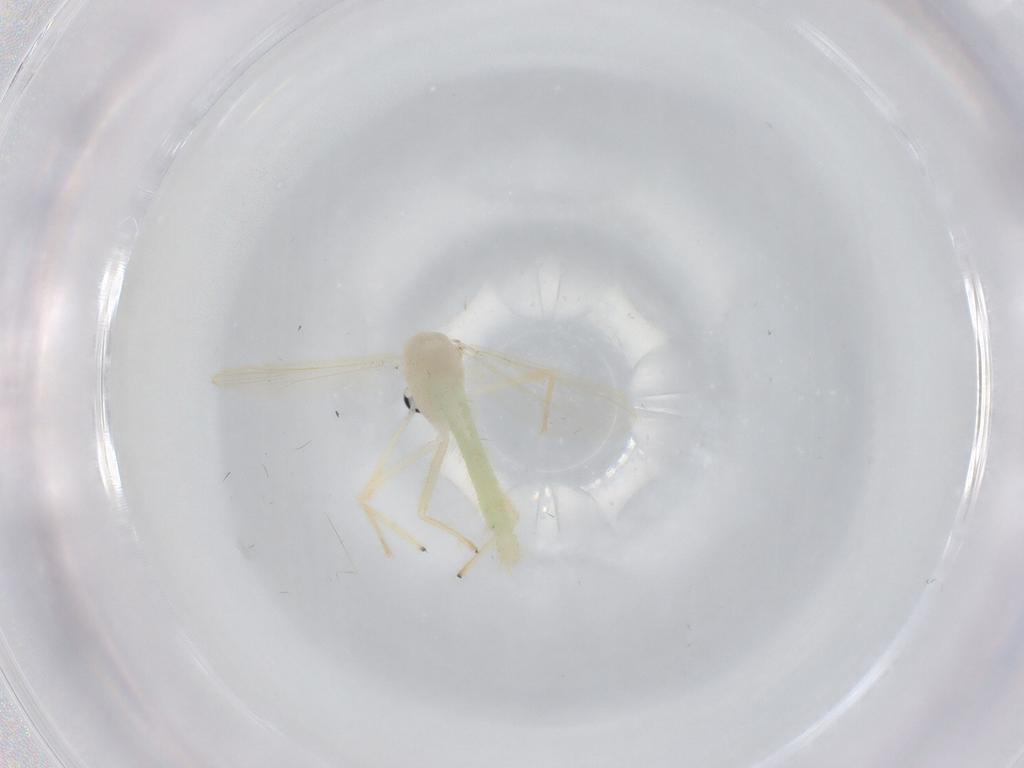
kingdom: Animalia
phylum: Arthropoda
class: Insecta
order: Diptera
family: Chironomidae
